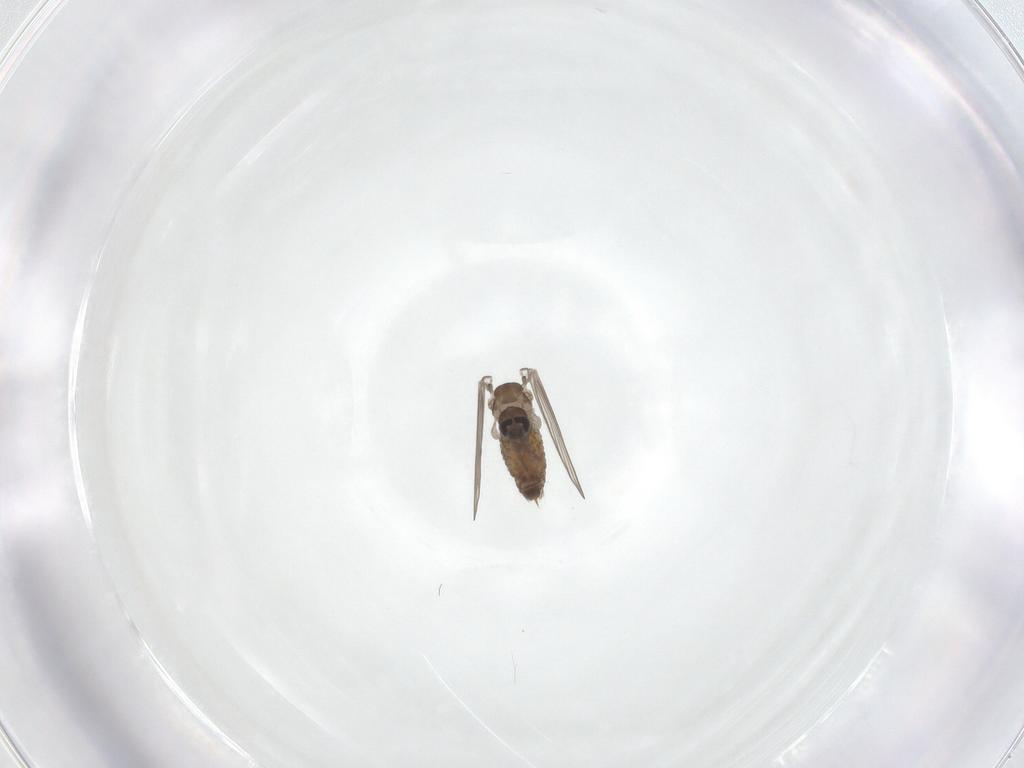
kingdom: Animalia
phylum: Arthropoda
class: Insecta
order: Diptera
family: Psychodidae
